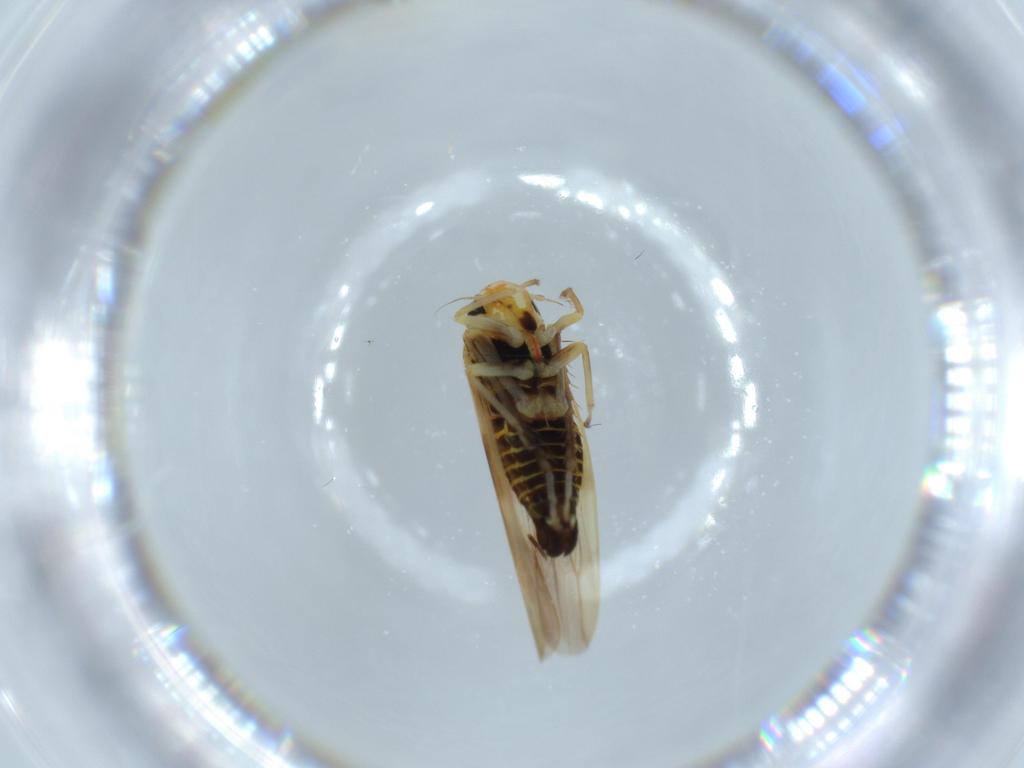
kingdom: Animalia
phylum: Arthropoda
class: Insecta
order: Hemiptera
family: Cicadellidae
